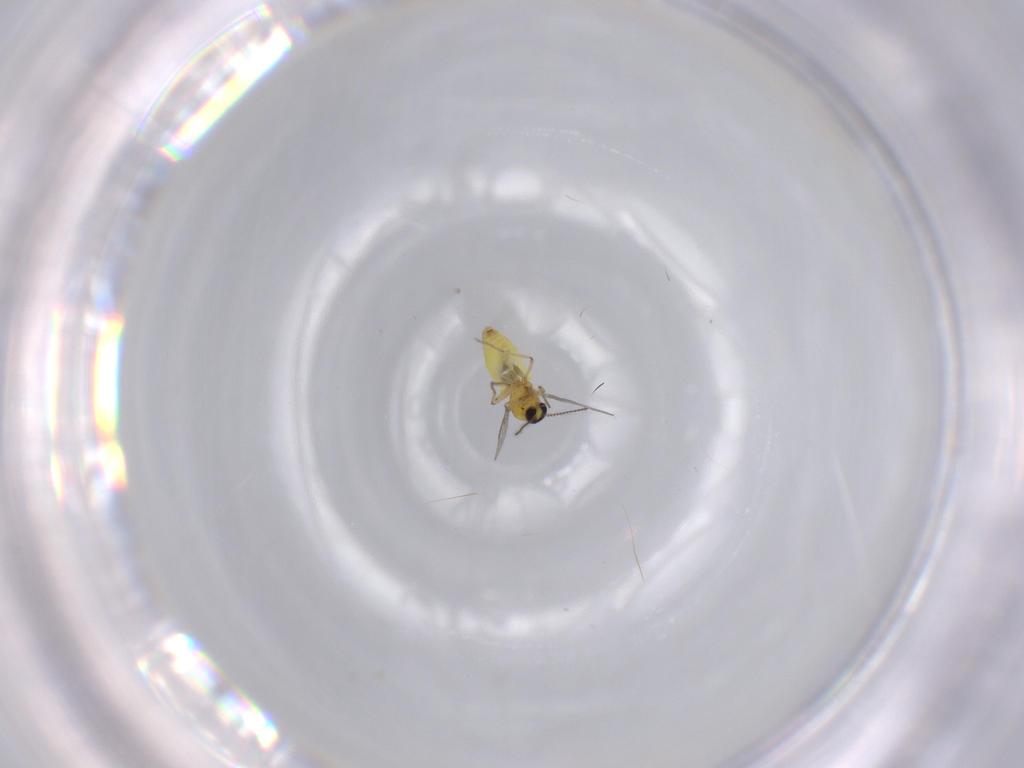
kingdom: Animalia
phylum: Arthropoda
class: Insecta
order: Diptera
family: Ceratopogonidae
